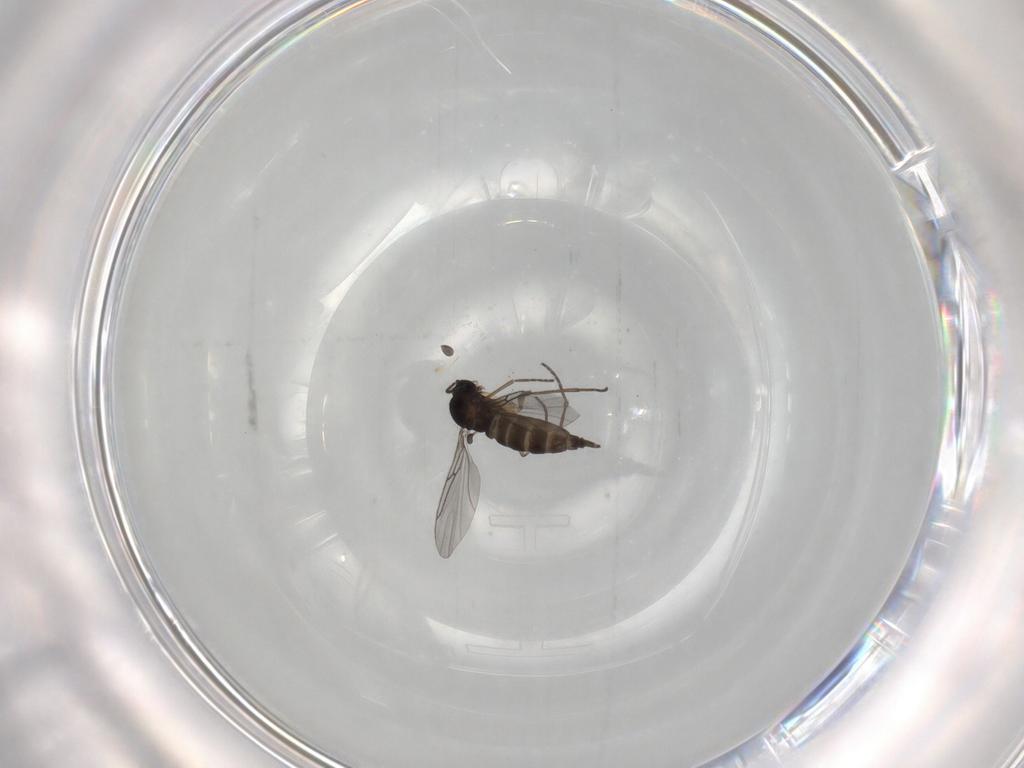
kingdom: Animalia
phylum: Arthropoda
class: Insecta
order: Diptera
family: Sciaridae
